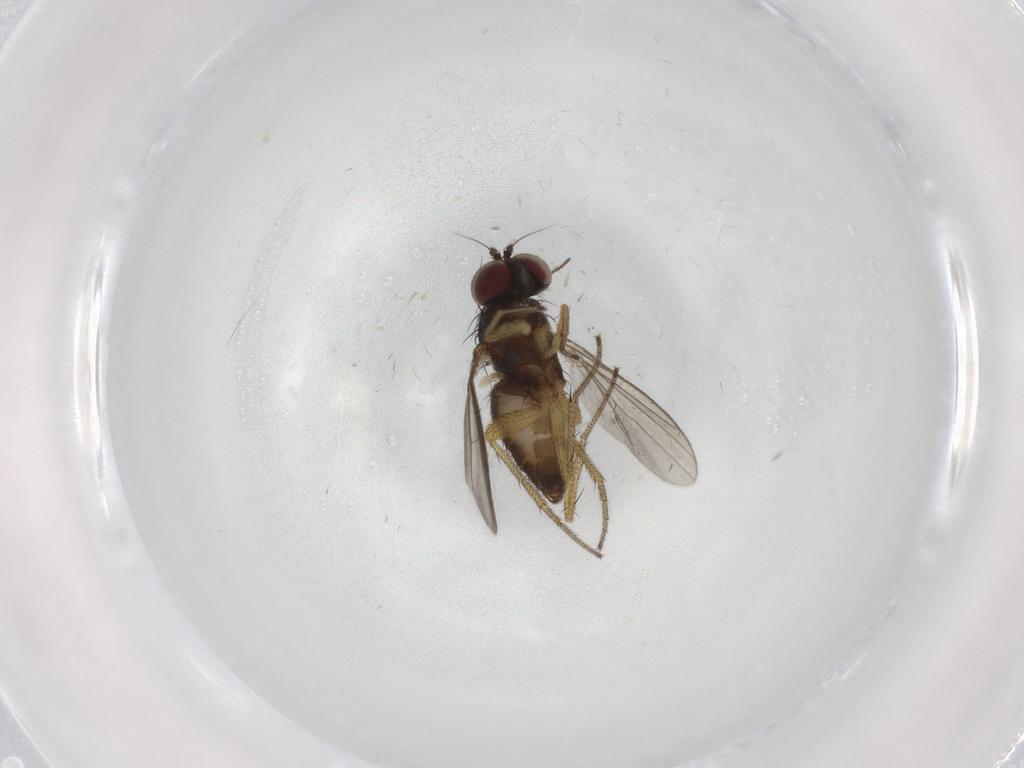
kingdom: Animalia
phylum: Arthropoda
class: Insecta
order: Diptera
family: Dolichopodidae
